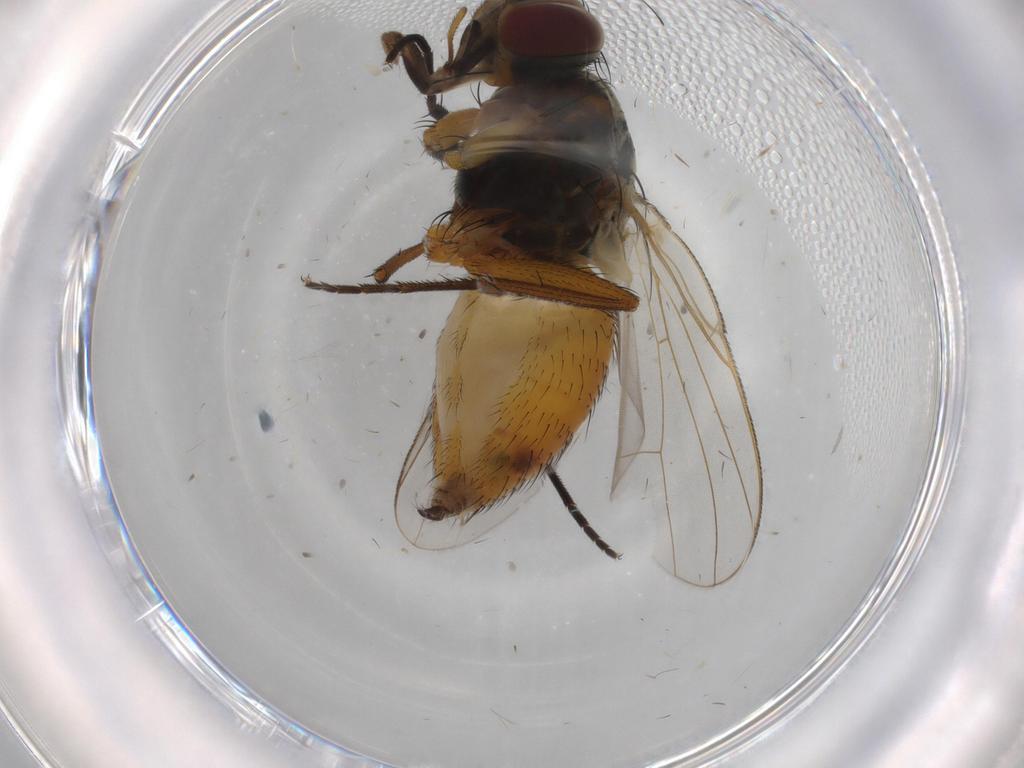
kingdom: Animalia
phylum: Arthropoda
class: Insecta
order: Diptera
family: Muscidae
